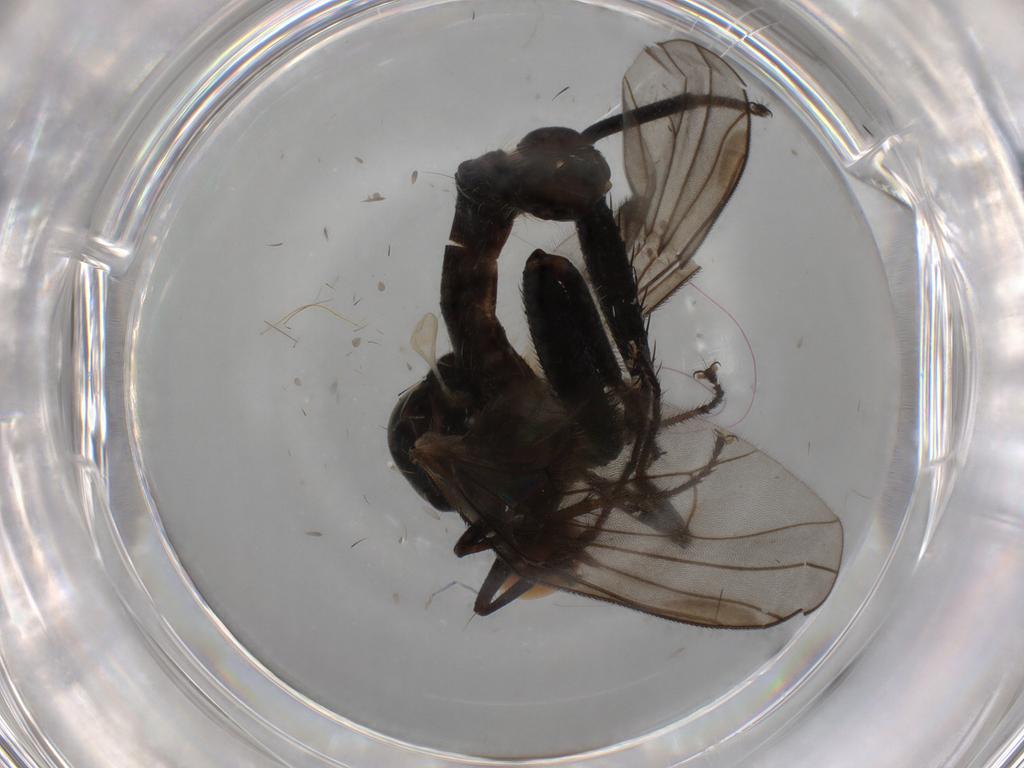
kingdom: Animalia
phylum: Arthropoda
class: Insecta
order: Diptera
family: Hybotidae
